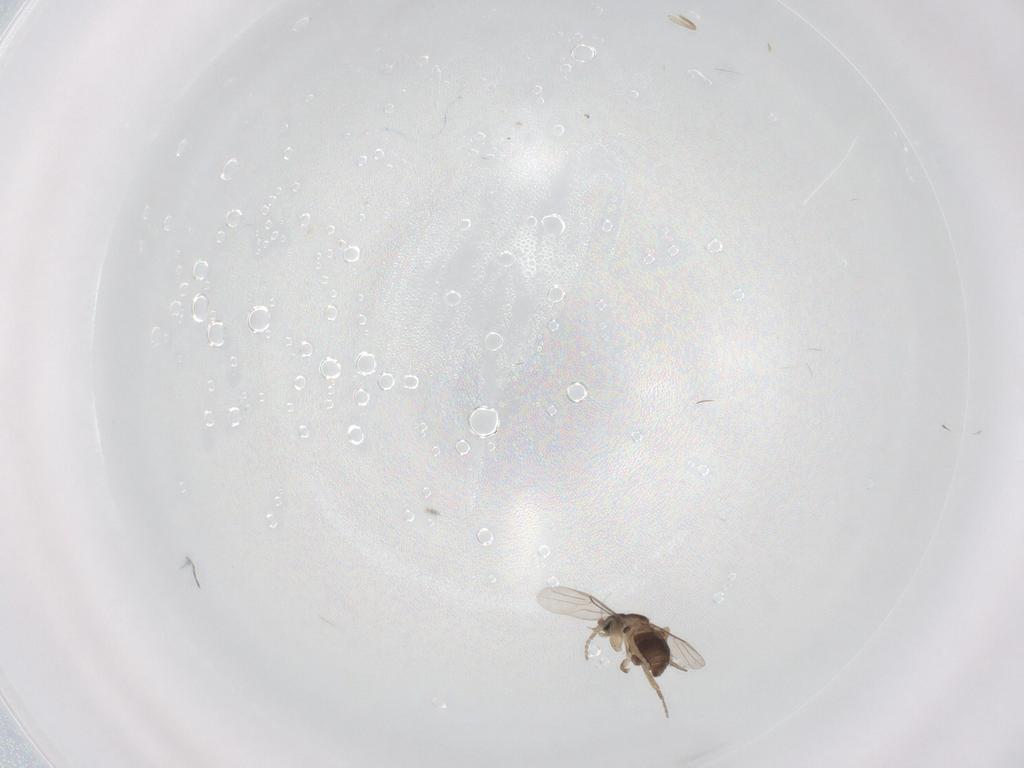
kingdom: Animalia
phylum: Arthropoda
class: Insecta
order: Diptera
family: Phoridae
